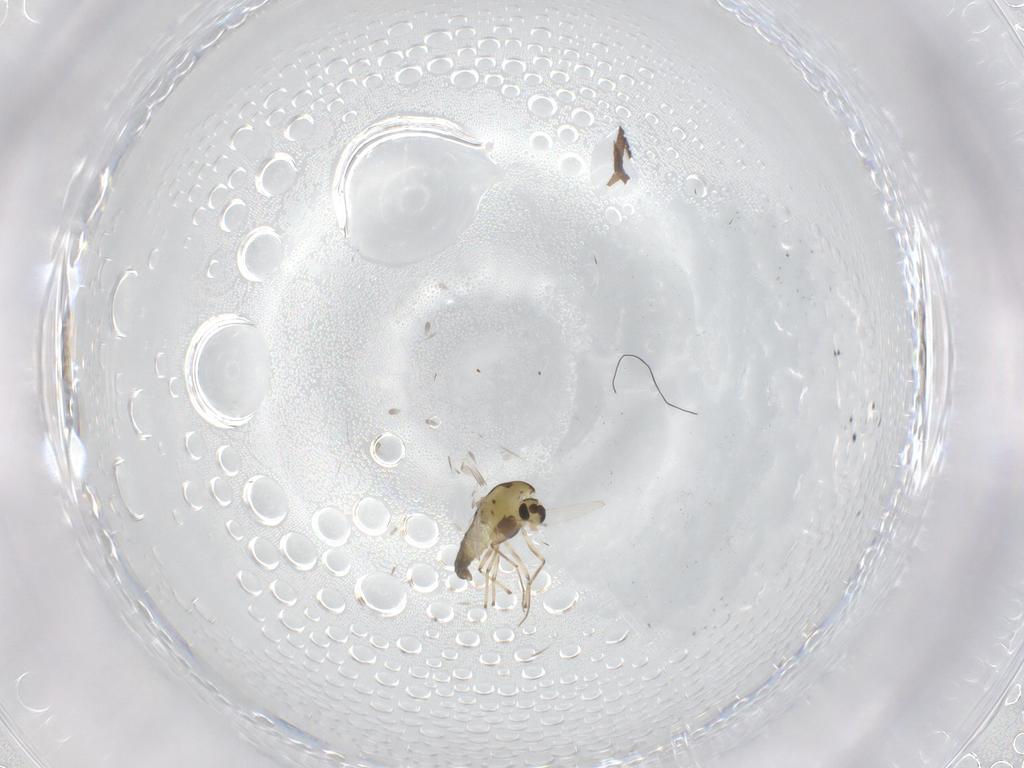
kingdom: Animalia
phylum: Arthropoda
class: Insecta
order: Diptera
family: Chironomidae
